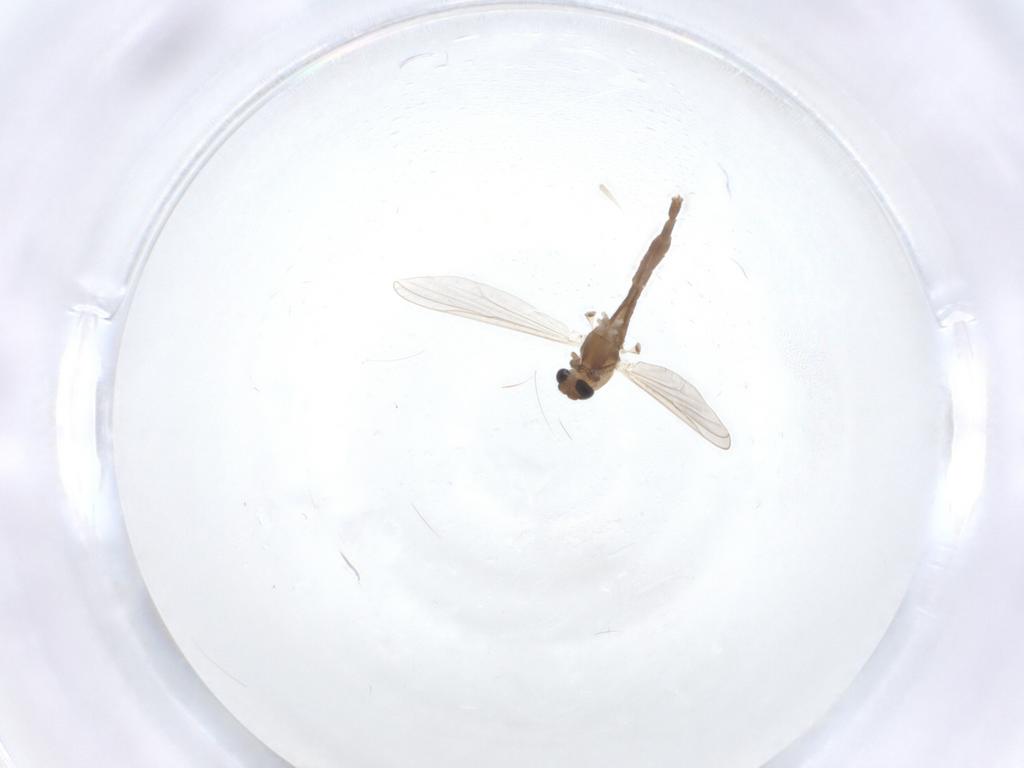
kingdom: Animalia
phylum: Arthropoda
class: Insecta
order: Diptera
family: Chironomidae
